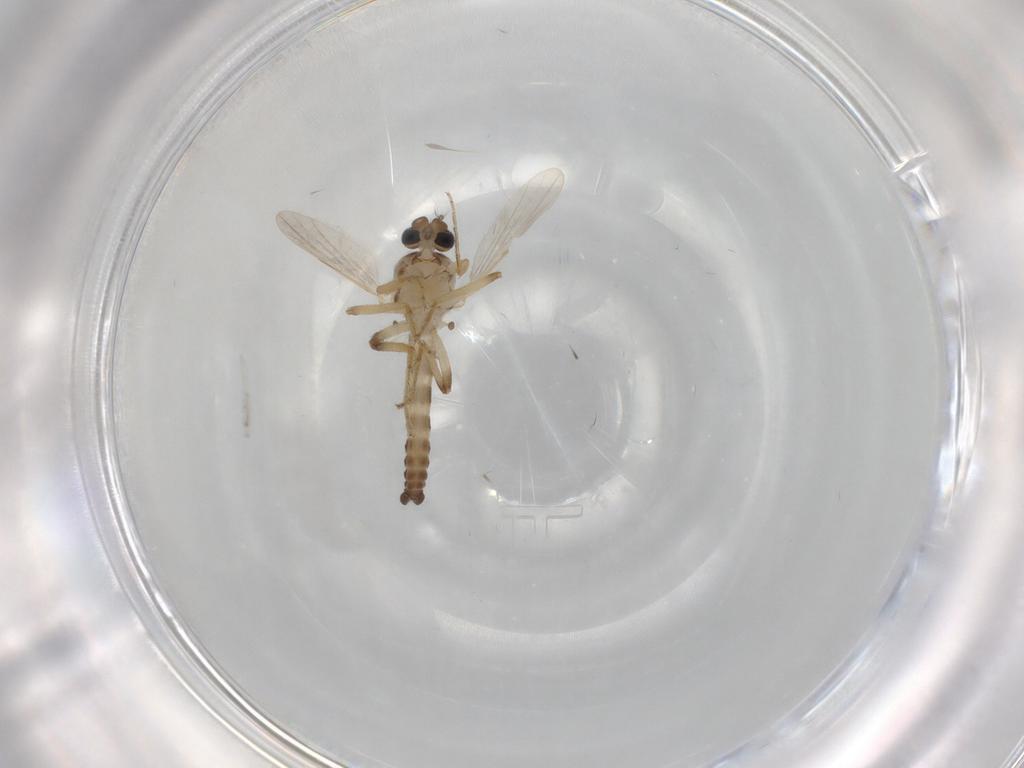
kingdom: Animalia
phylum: Arthropoda
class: Insecta
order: Diptera
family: Ceratopogonidae
